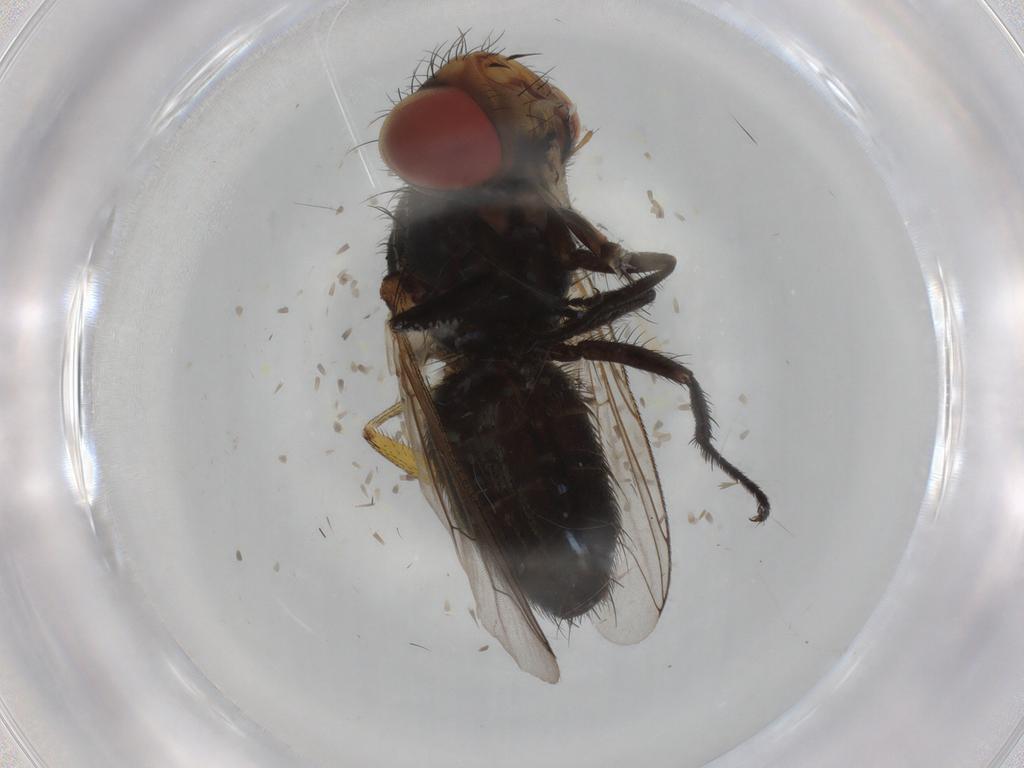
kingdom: Animalia
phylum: Arthropoda
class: Insecta
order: Diptera
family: Sarcophagidae
